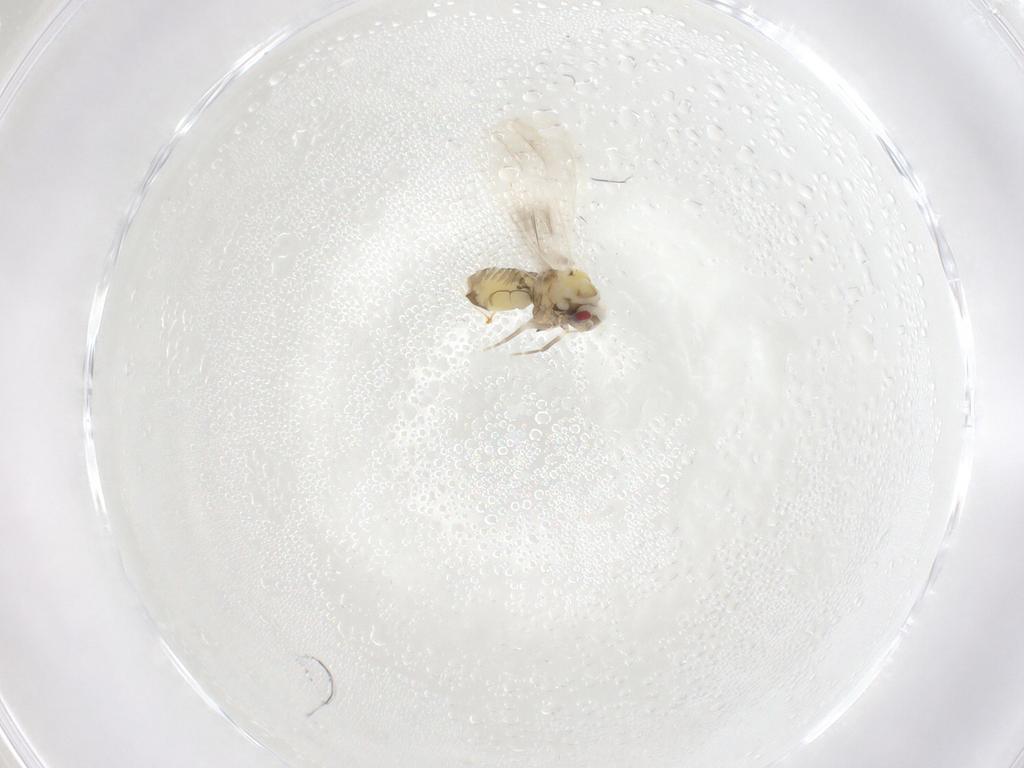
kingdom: Animalia
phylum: Arthropoda
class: Insecta
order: Hemiptera
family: Aleyrodidae
